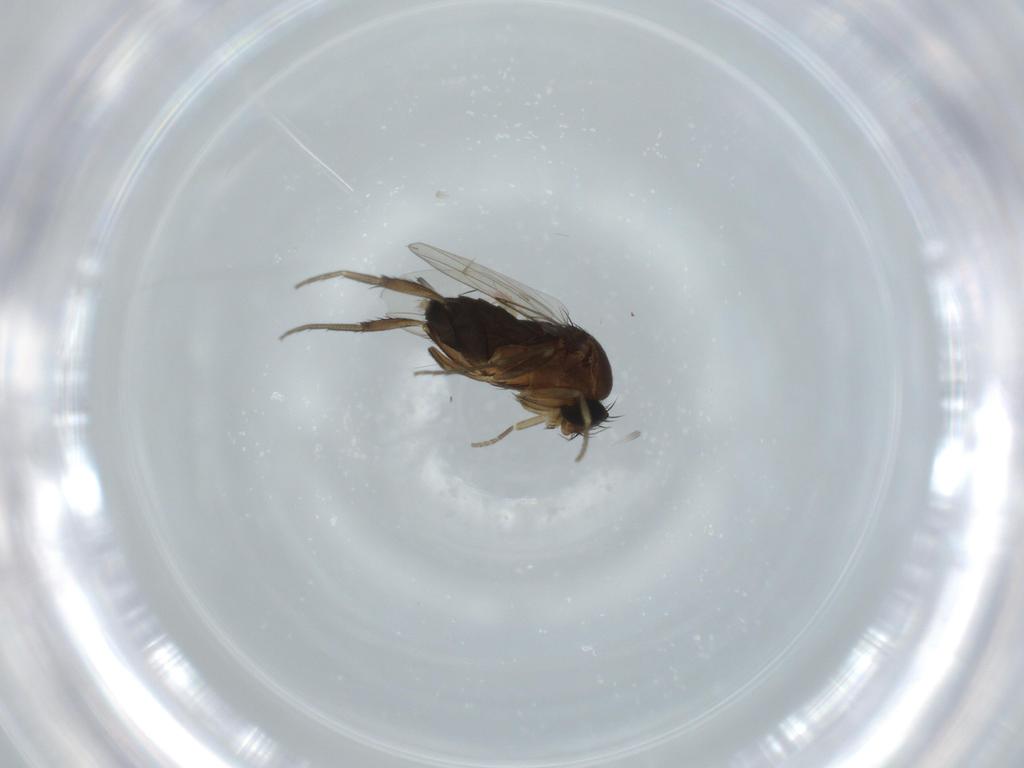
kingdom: Animalia
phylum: Arthropoda
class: Insecta
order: Diptera
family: Phoridae
